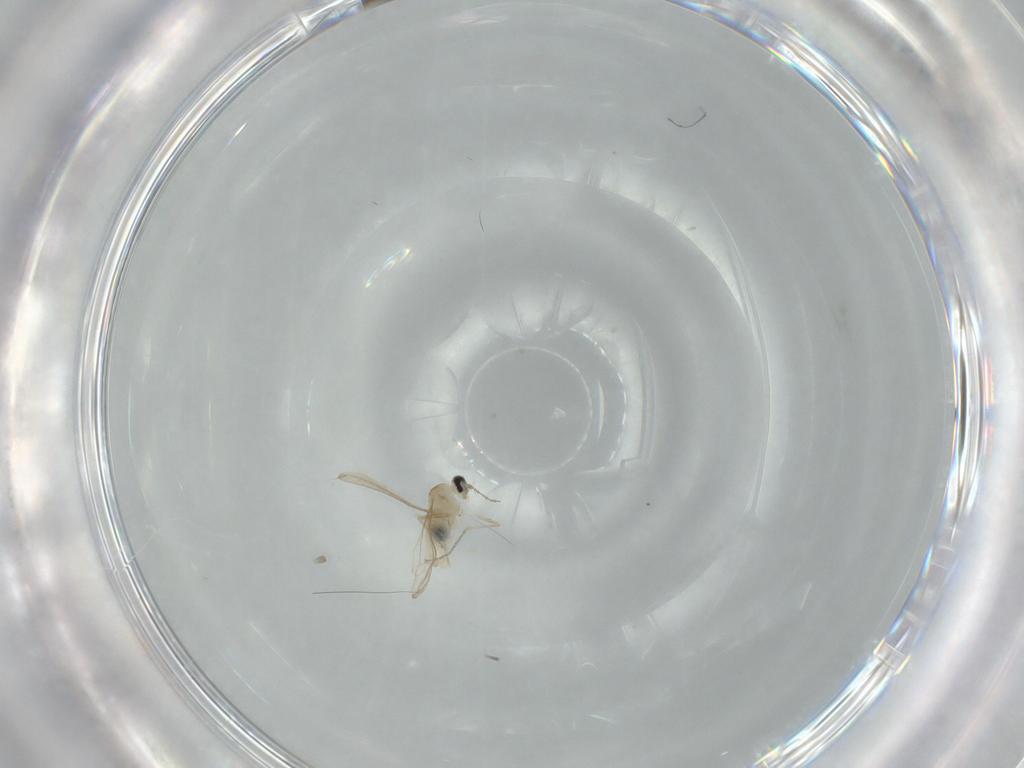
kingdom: Animalia
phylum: Arthropoda
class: Insecta
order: Diptera
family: Cecidomyiidae
